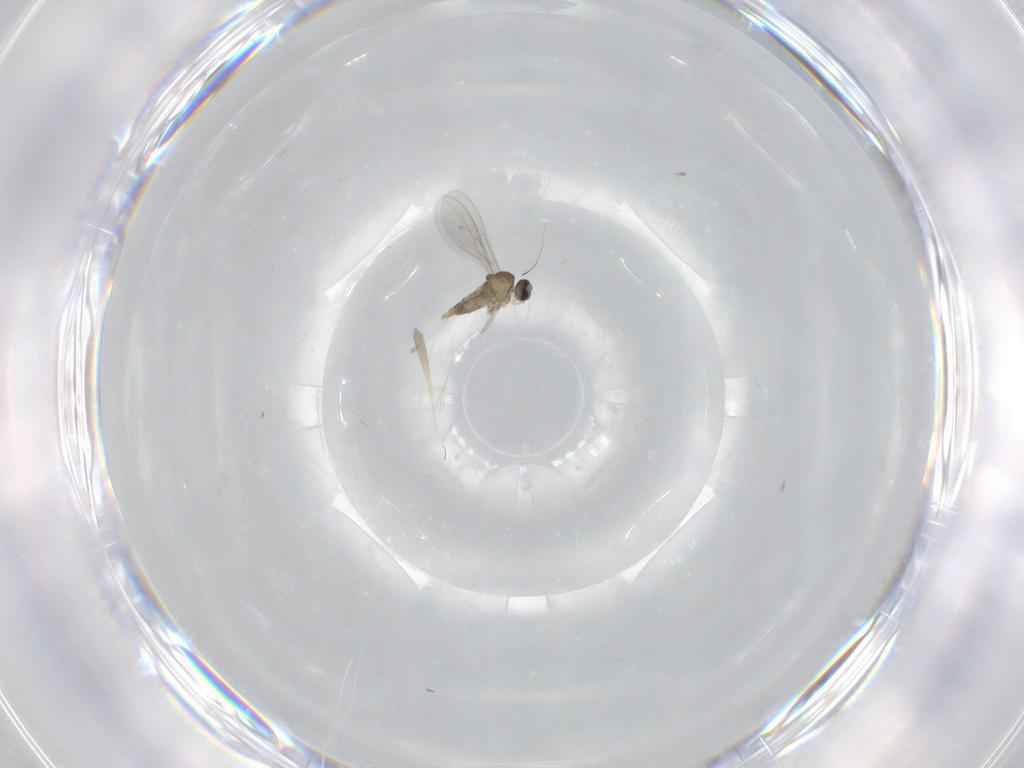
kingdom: Animalia
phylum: Arthropoda
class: Insecta
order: Diptera
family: Cecidomyiidae
